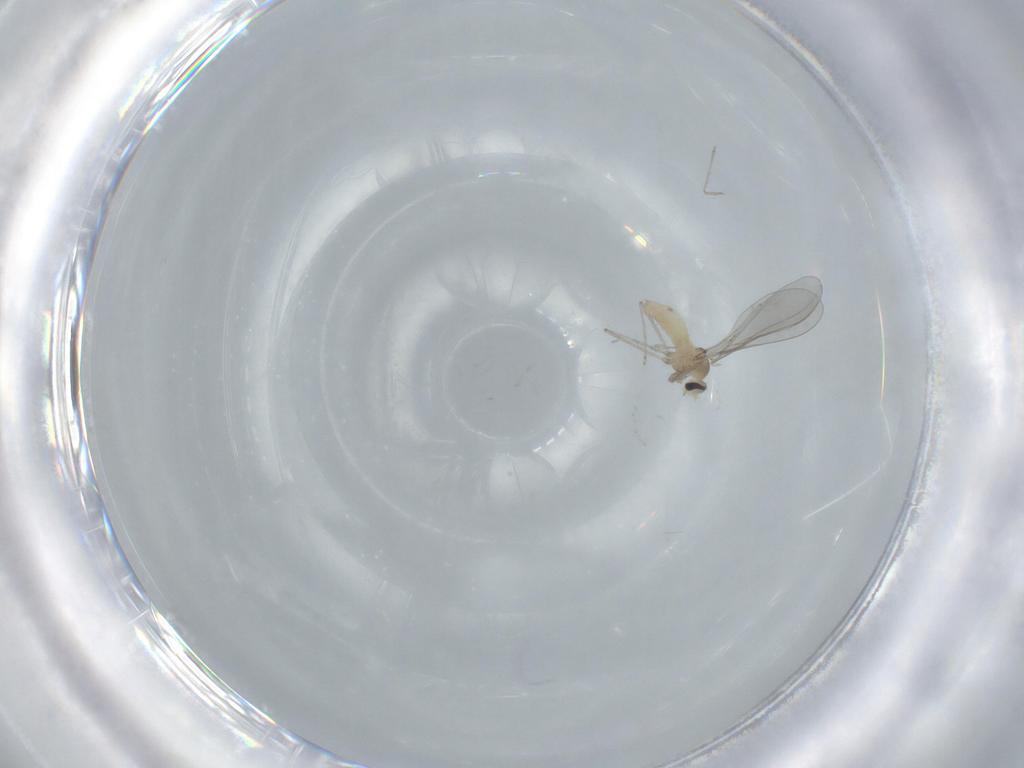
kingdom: Animalia
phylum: Arthropoda
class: Insecta
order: Diptera
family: Cecidomyiidae
